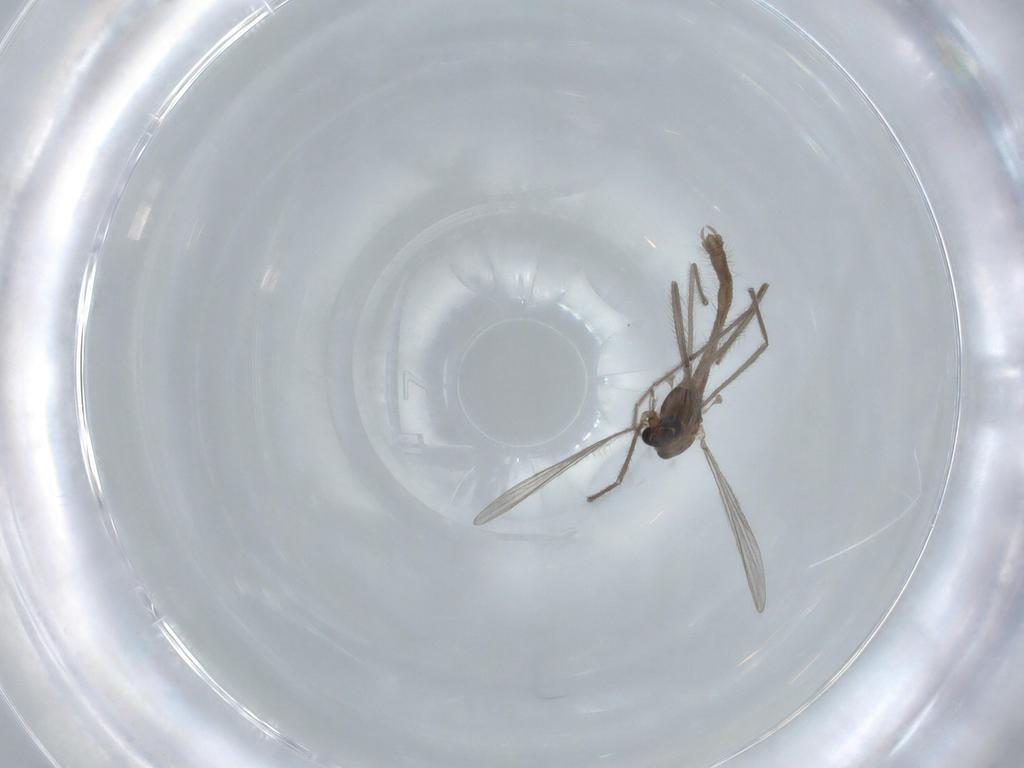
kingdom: Animalia
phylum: Arthropoda
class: Insecta
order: Diptera
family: Chironomidae
